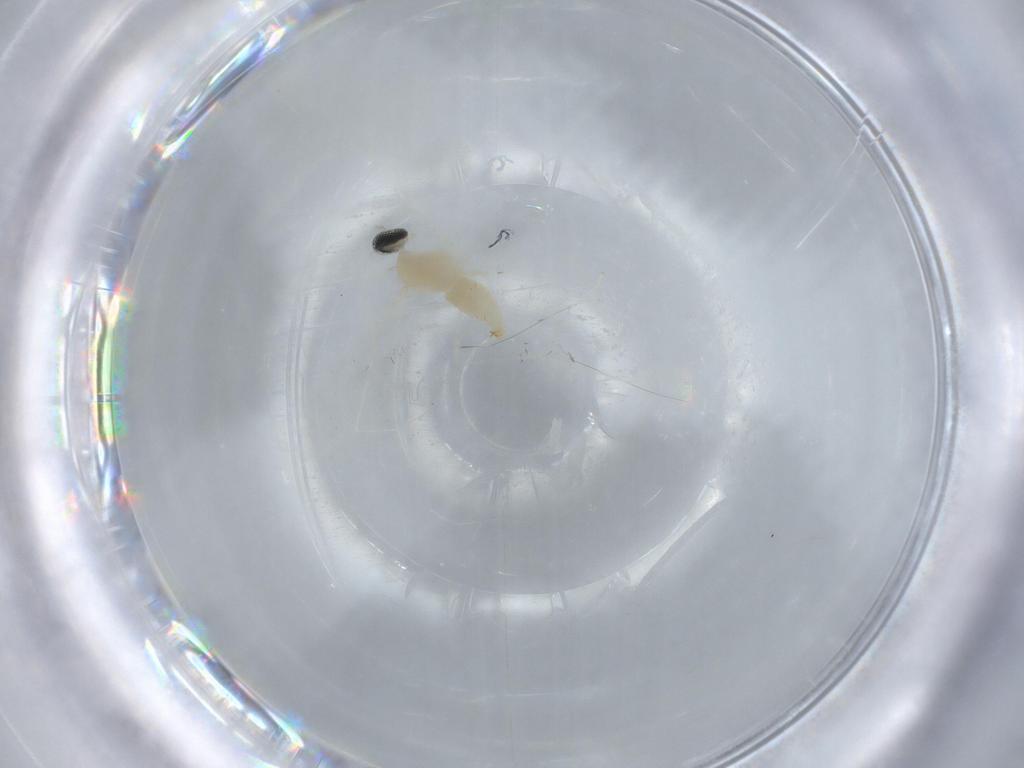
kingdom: Animalia
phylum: Arthropoda
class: Insecta
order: Diptera
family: Cecidomyiidae
